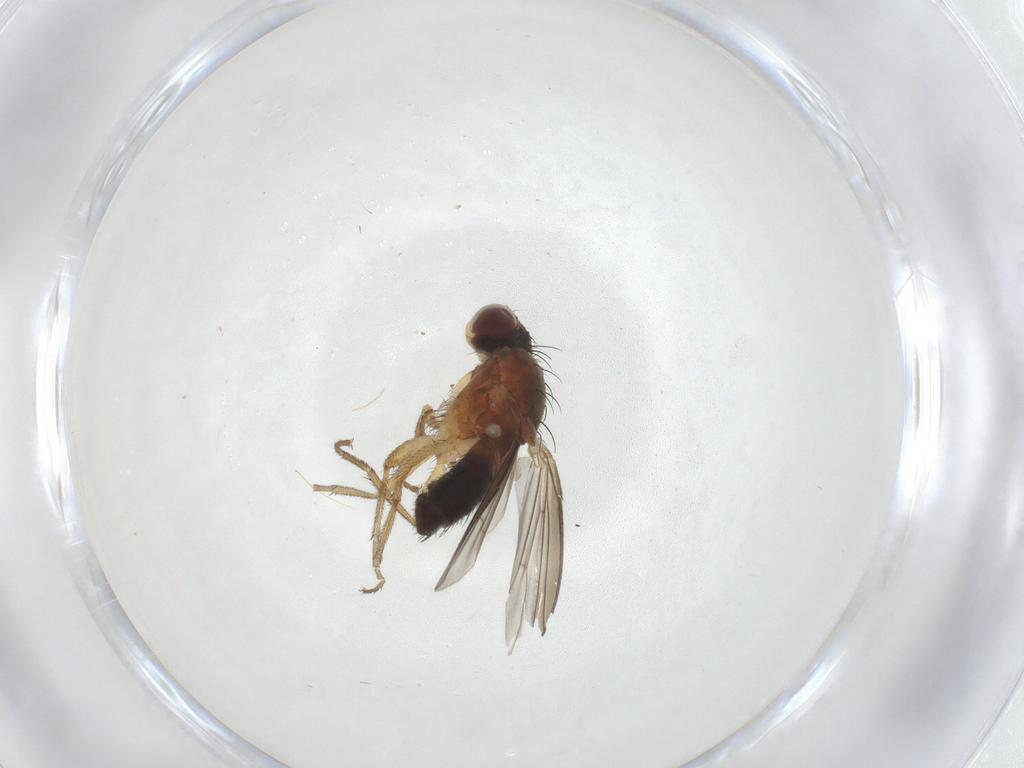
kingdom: Animalia
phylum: Arthropoda
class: Insecta
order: Diptera
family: Heleomyzidae
